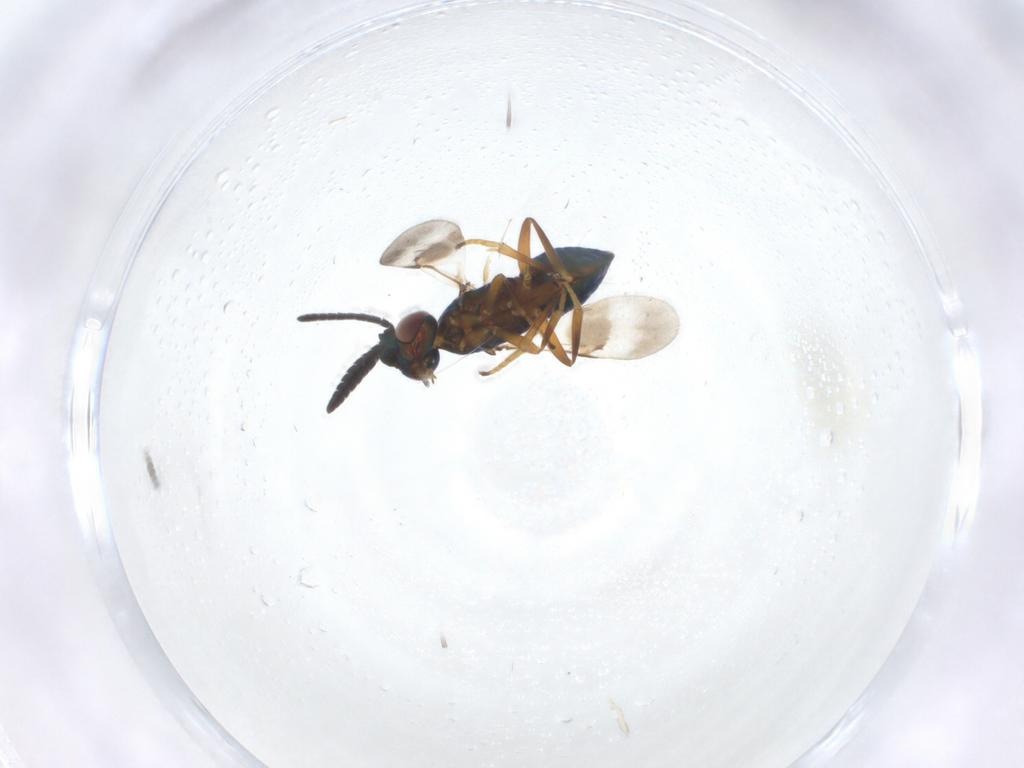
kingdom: Animalia
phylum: Arthropoda
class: Insecta
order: Hymenoptera
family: Encyrtidae
